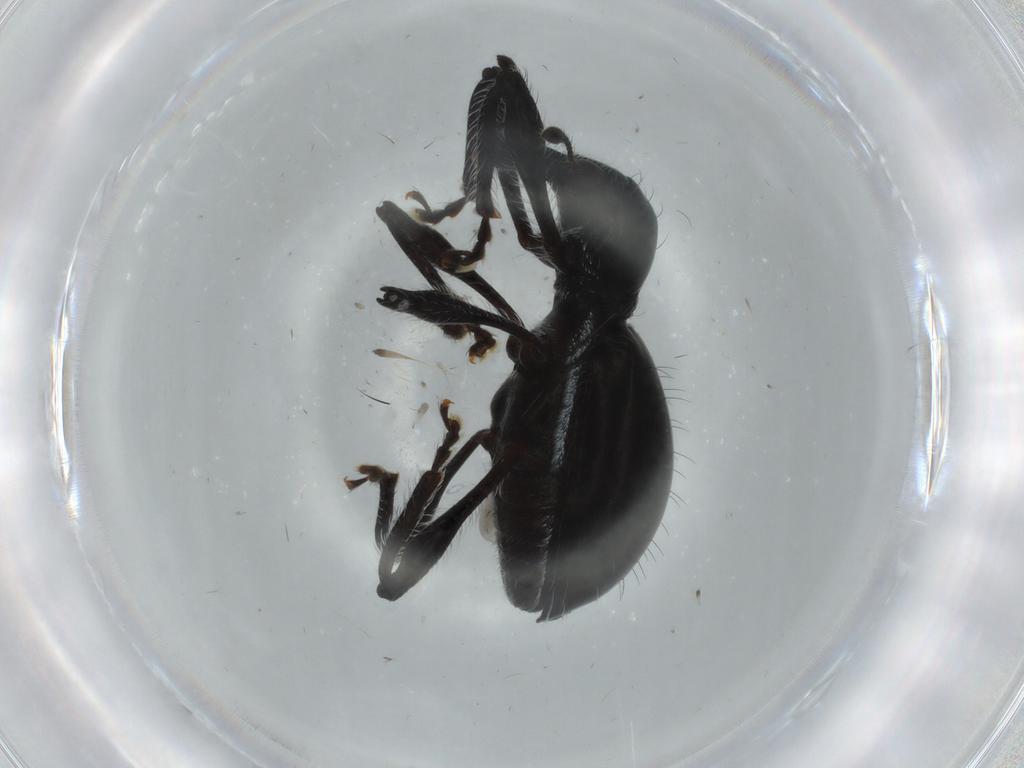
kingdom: Animalia
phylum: Arthropoda
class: Insecta
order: Coleoptera
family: Curculionidae
